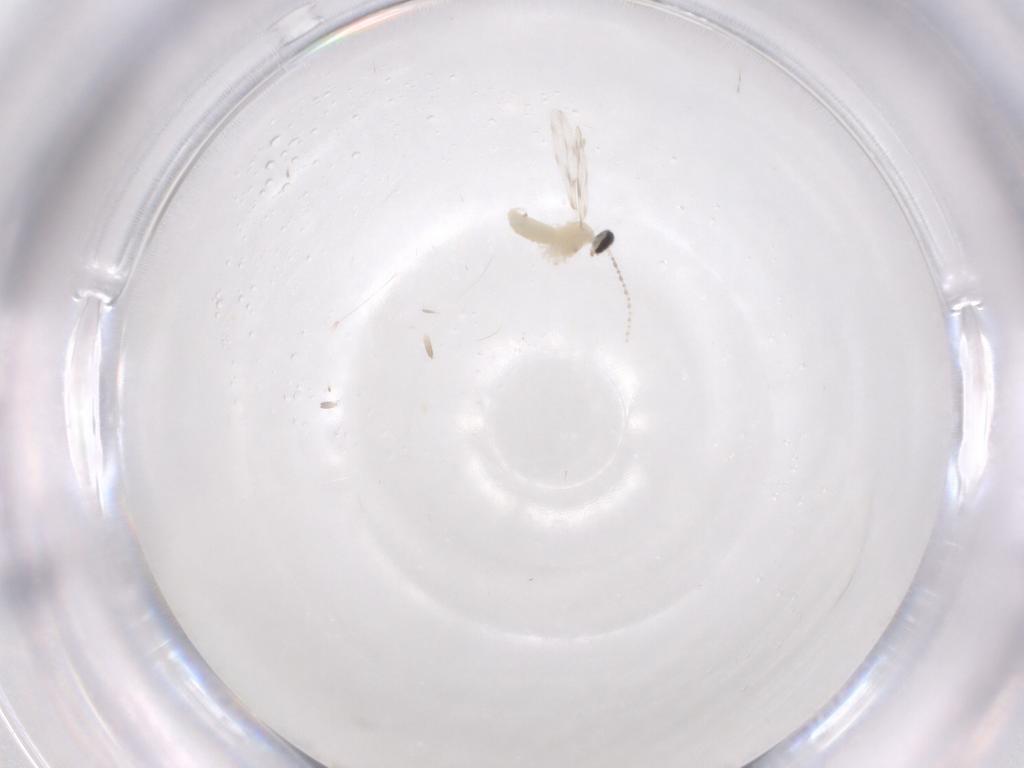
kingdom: Animalia
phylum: Arthropoda
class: Insecta
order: Diptera
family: Cecidomyiidae
